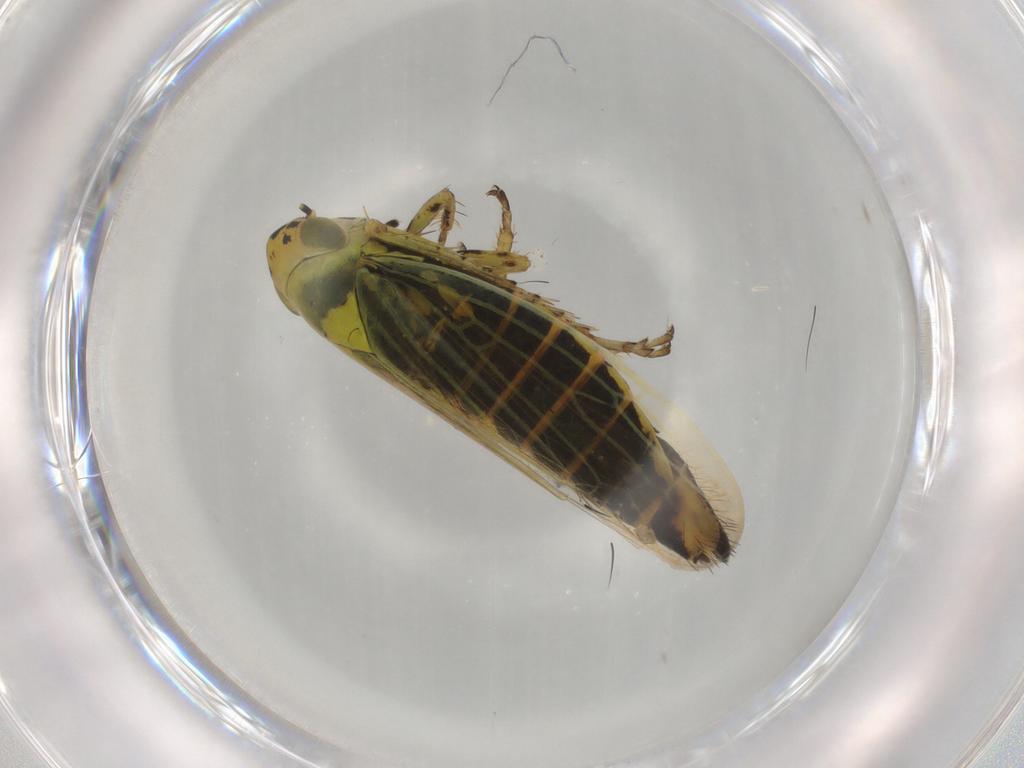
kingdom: Animalia
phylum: Arthropoda
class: Insecta
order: Hemiptera
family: Cicadellidae
